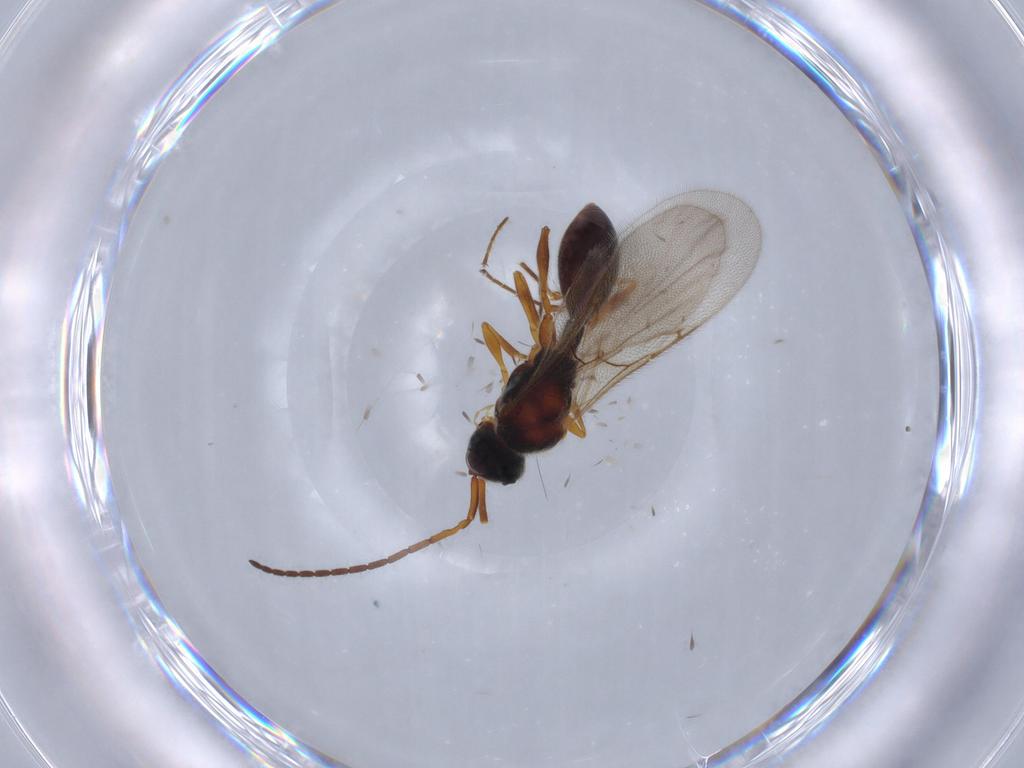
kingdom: Animalia
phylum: Arthropoda
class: Insecta
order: Hymenoptera
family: Diapriidae
